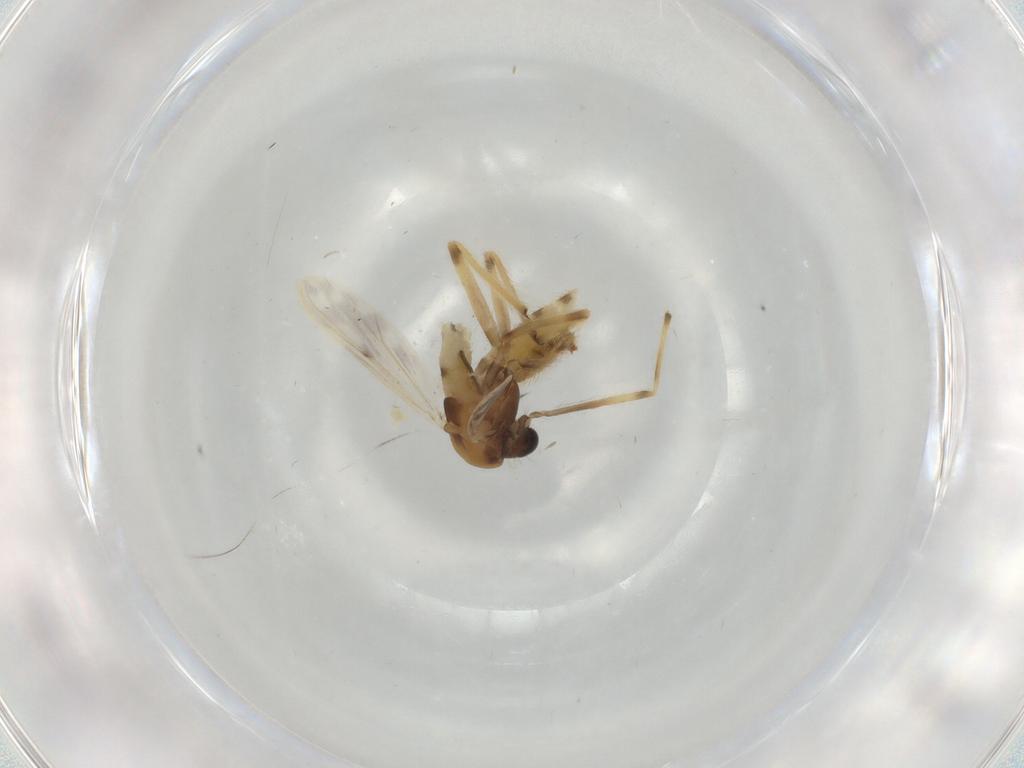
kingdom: Animalia
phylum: Arthropoda
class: Insecta
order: Diptera
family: Chironomidae
